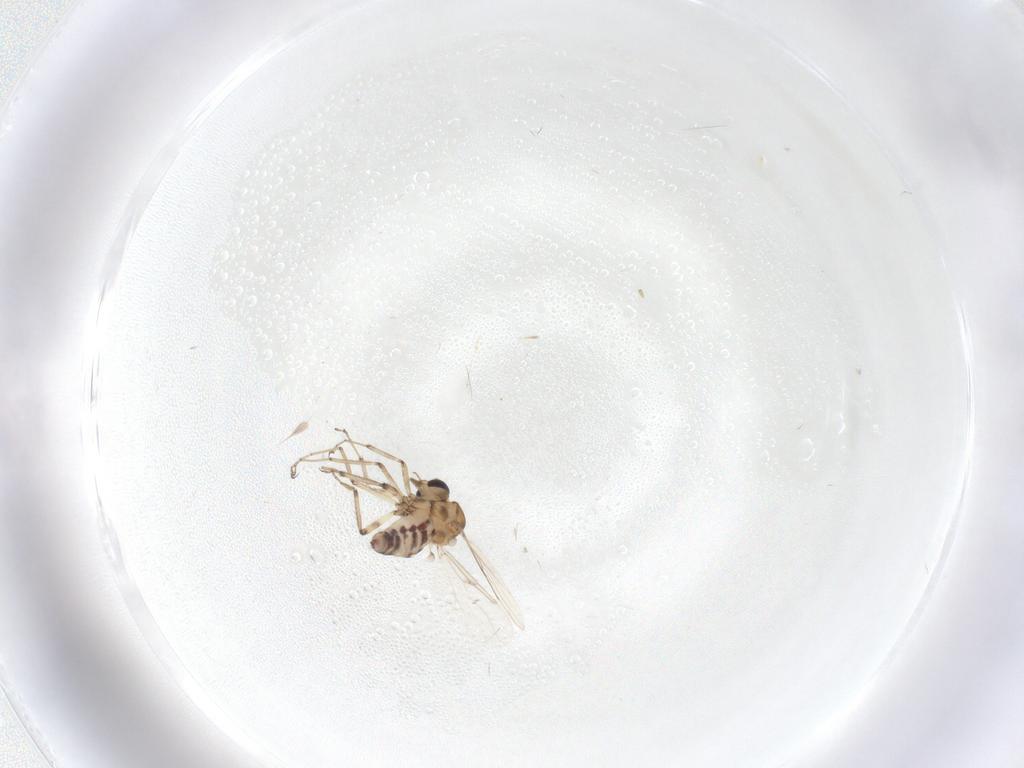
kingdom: Animalia
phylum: Arthropoda
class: Insecta
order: Diptera
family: Ceratopogonidae
